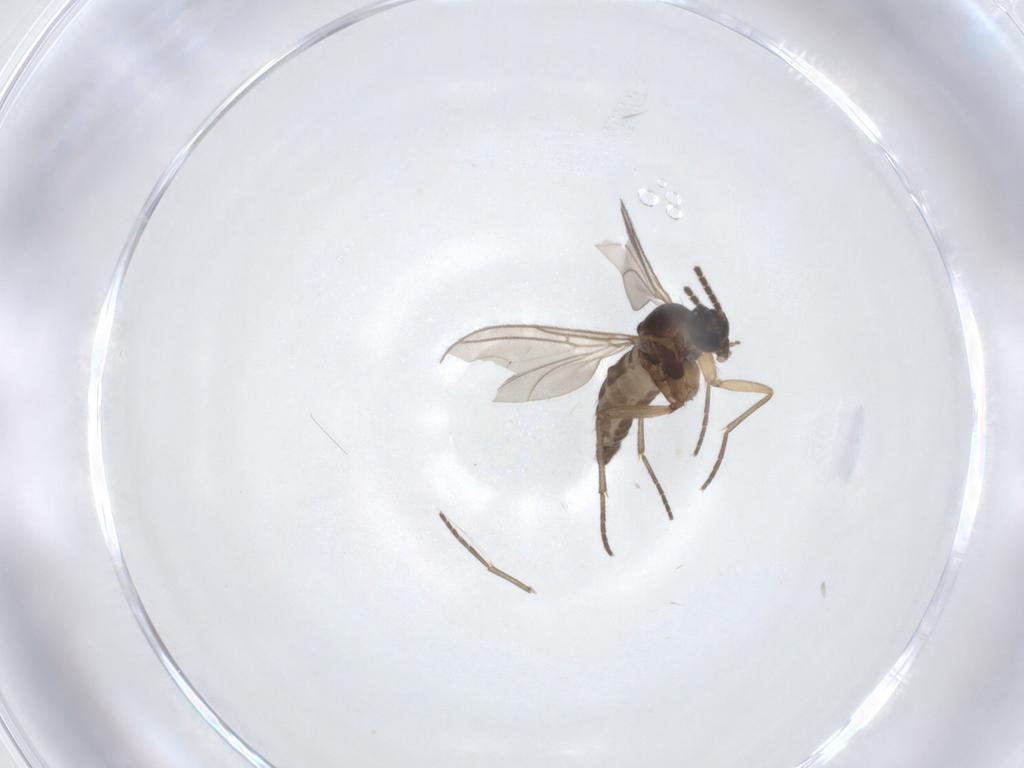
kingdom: Animalia
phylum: Arthropoda
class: Insecta
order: Diptera
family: Sciaridae
